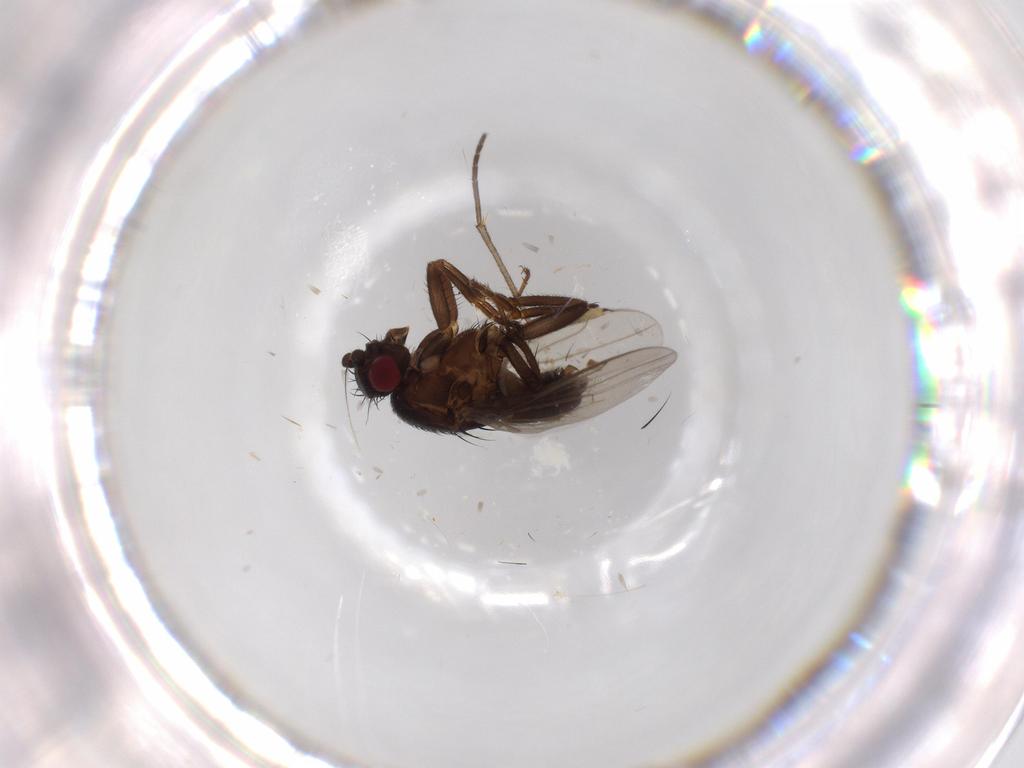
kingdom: Animalia
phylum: Arthropoda
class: Insecta
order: Diptera
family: Sphaeroceridae
